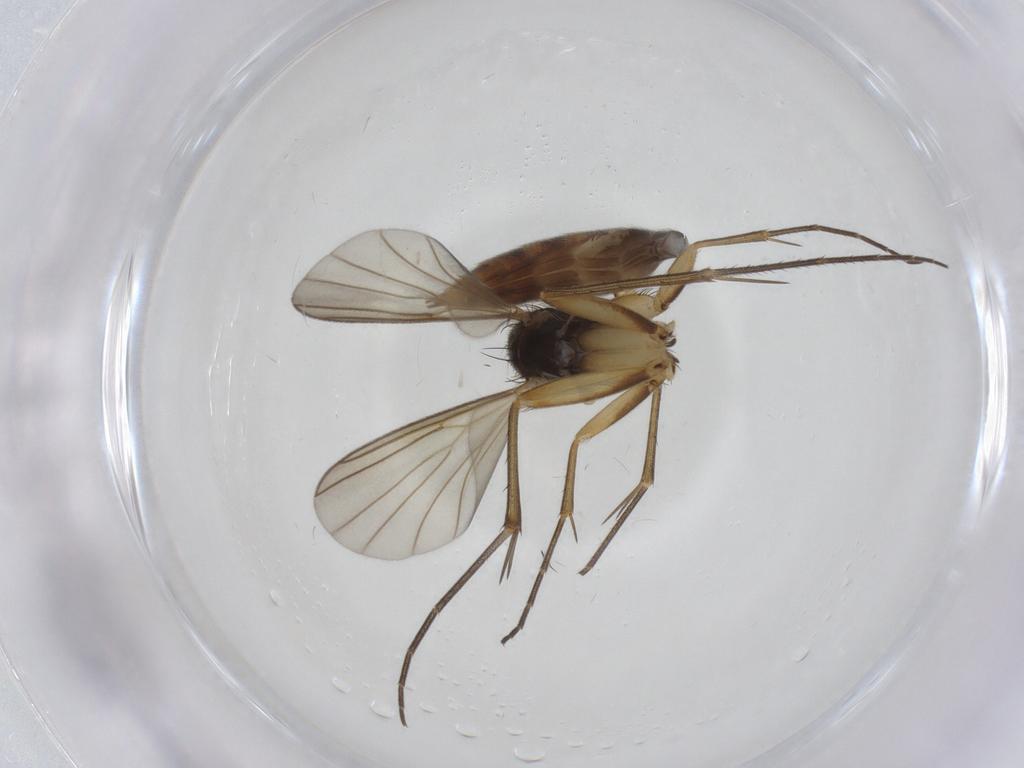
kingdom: Animalia
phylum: Arthropoda
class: Insecta
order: Diptera
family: Mycetophilidae
